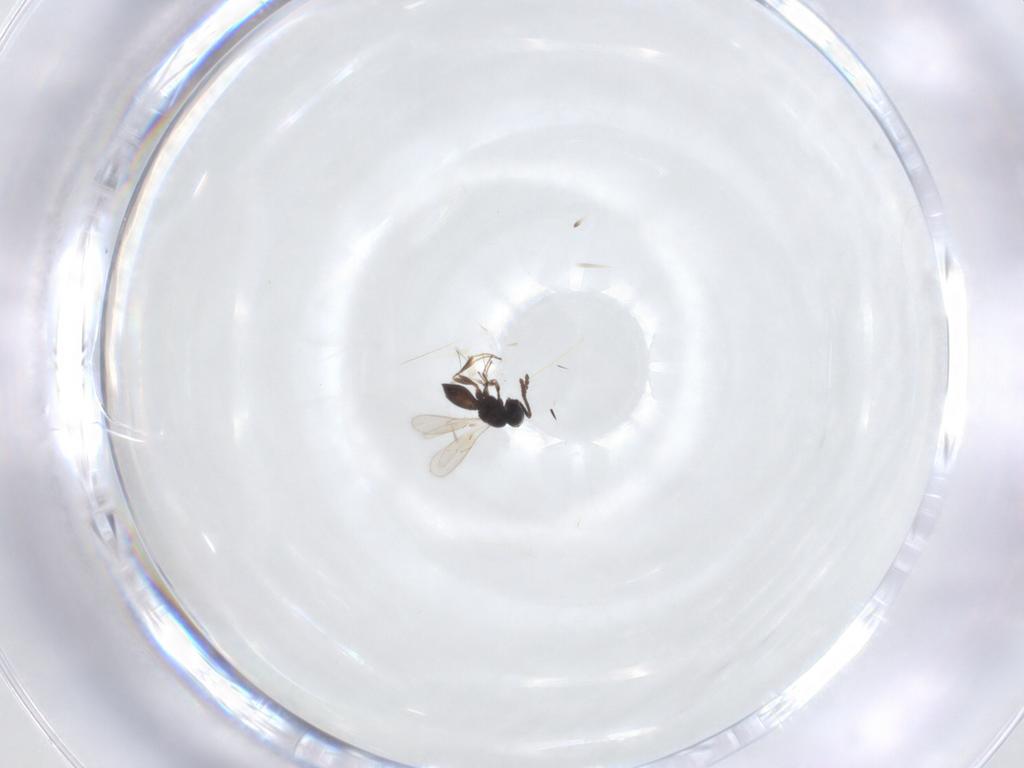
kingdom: Animalia
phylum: Arthropoda
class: Insecta
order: Hymenoptera
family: Scelionidae
